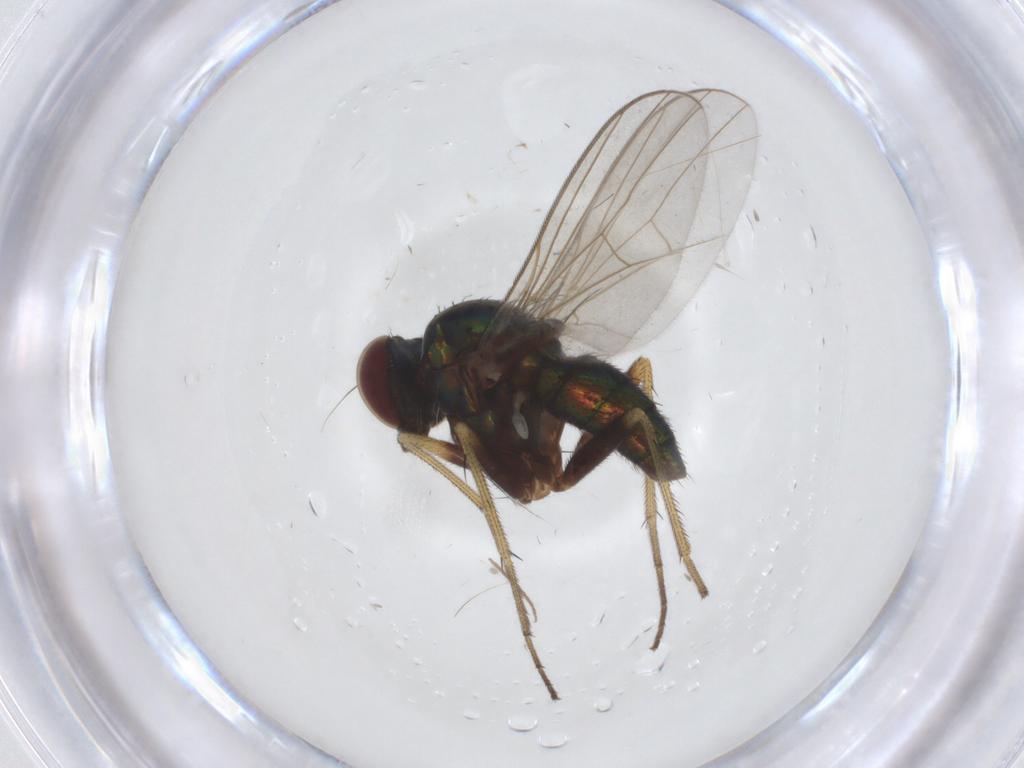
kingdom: Animalia
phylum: Arthropoda
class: Insecta
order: Diptera
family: Dolichopodidae
